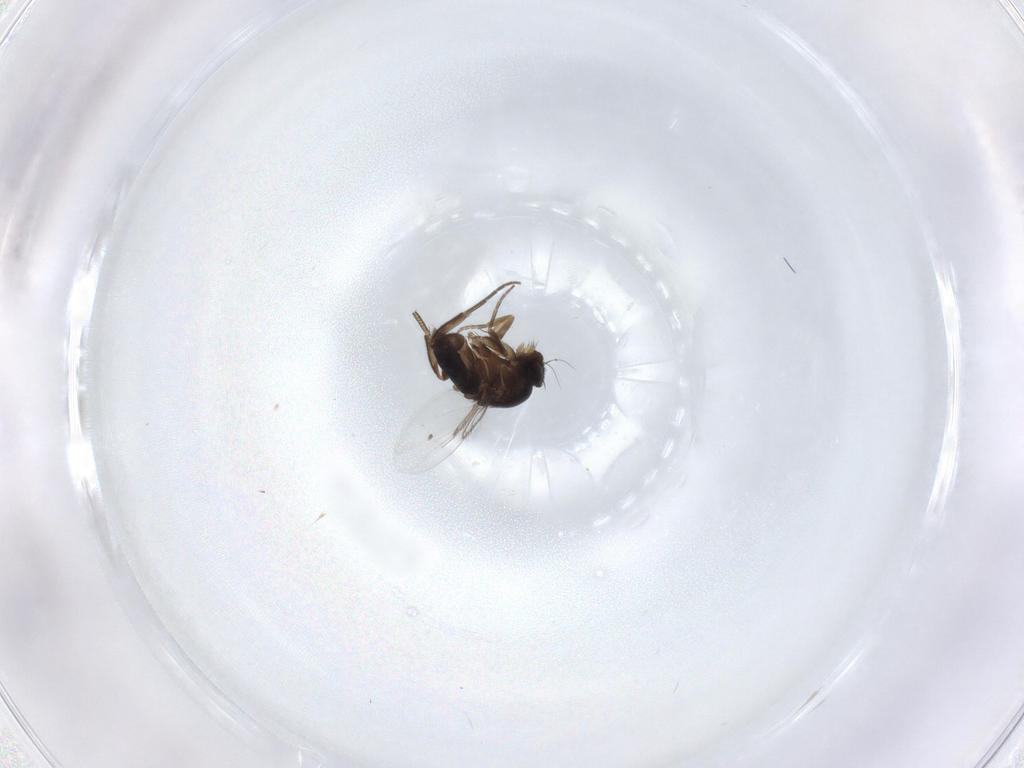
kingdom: Animalia
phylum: Arthropoda
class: Insecta
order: Diptera
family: Phoridae
